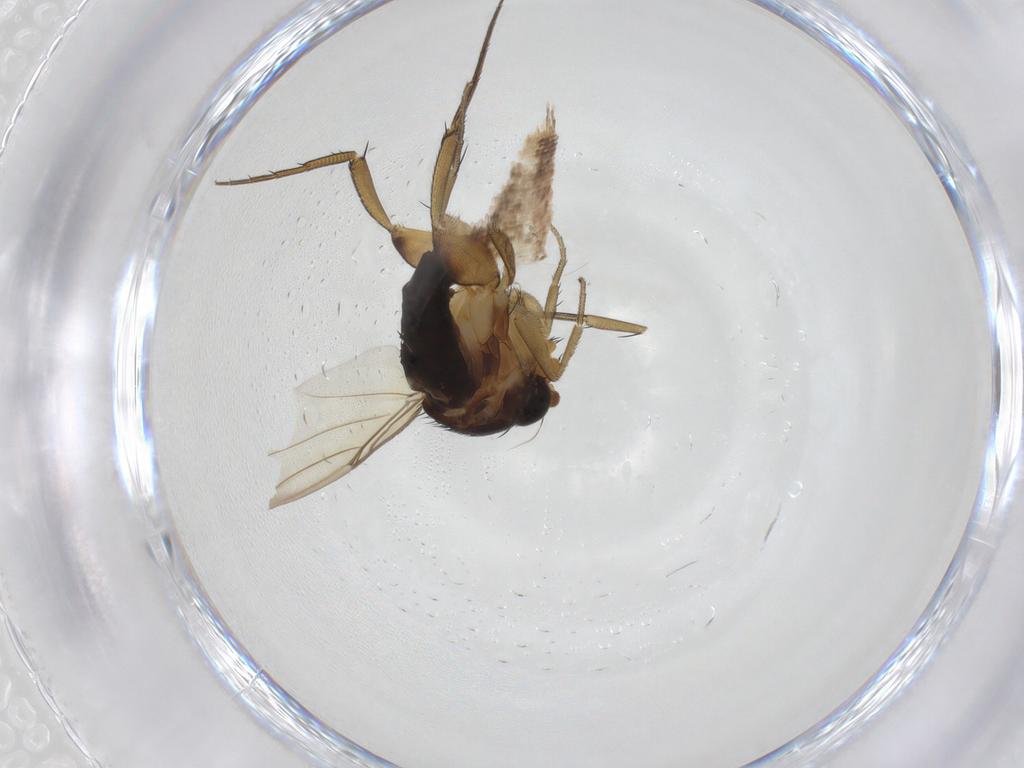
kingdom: Animalia
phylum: Arthropoda
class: Insecta
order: Diptera
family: Phoridae
